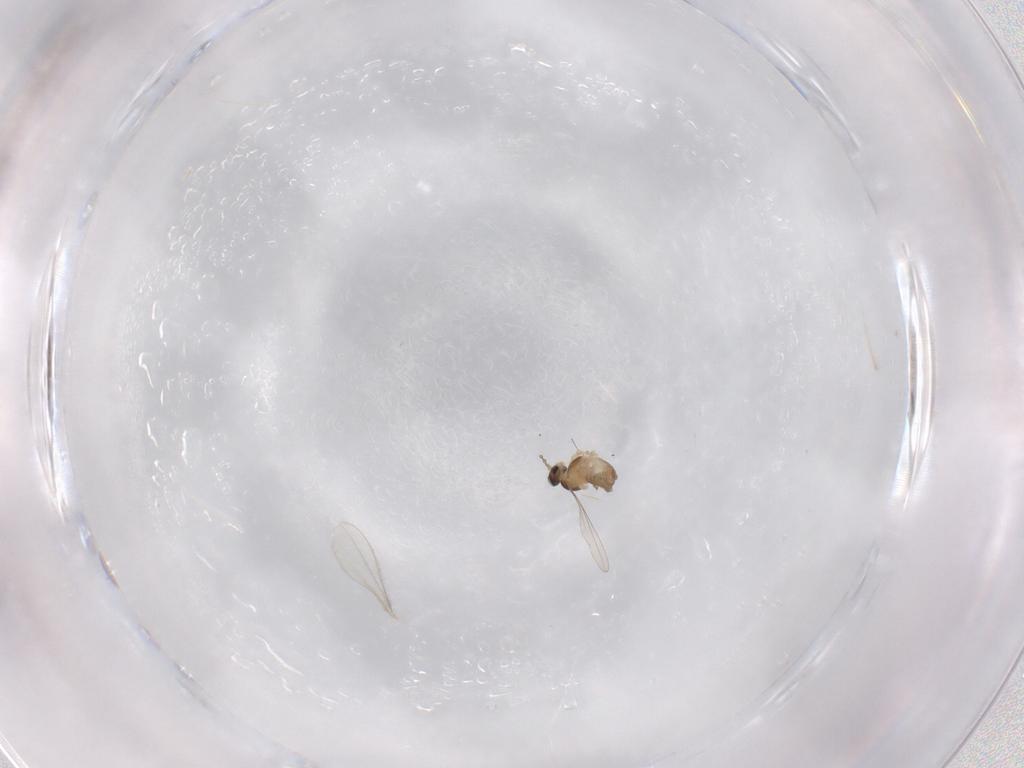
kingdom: Animalia
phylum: Arthropoda
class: Insecta
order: Diptera
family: Cecidomyiidae
